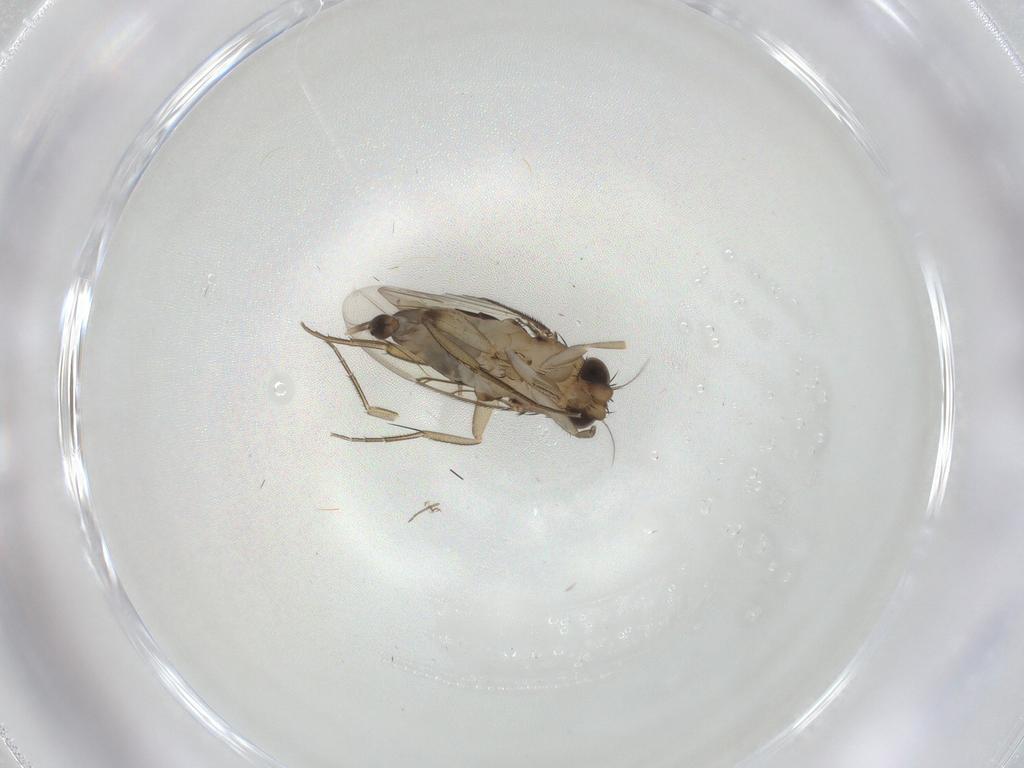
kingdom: Animalia
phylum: Arthropoda
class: Insecta
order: Diptera
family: Phoridae
